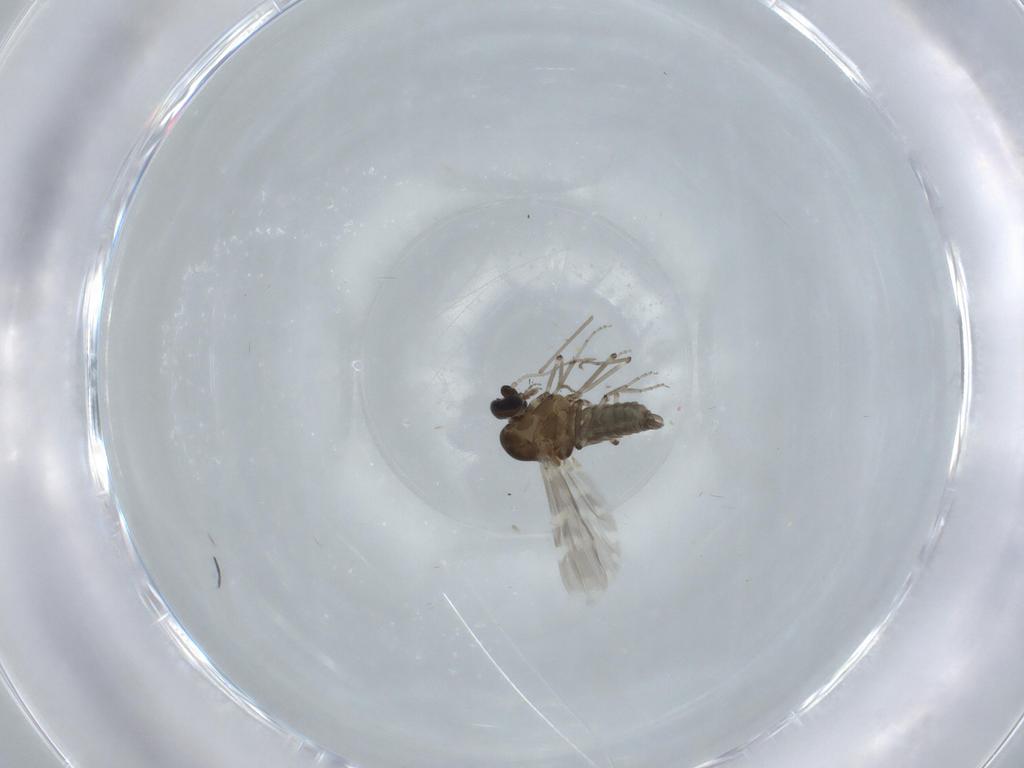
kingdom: Animalia
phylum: Arthropoda
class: Insecta
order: Diptera
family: Chironomidae
